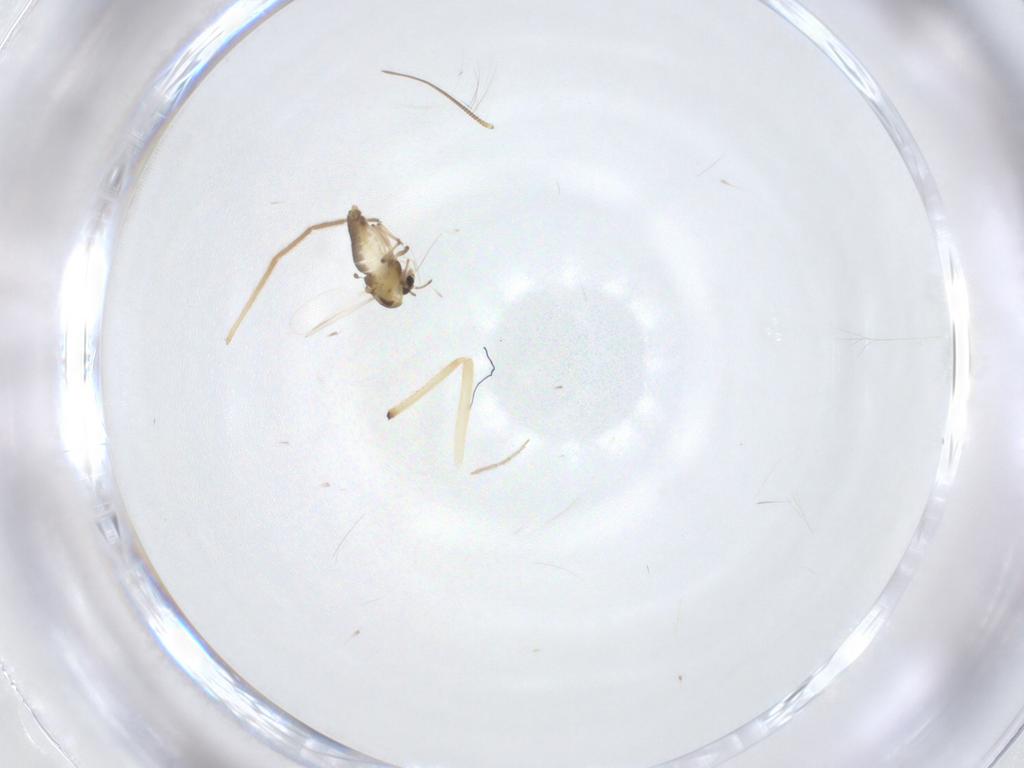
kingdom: Animalia
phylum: Arthropoda
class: Insecta
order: Diptera
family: Chironomidae
